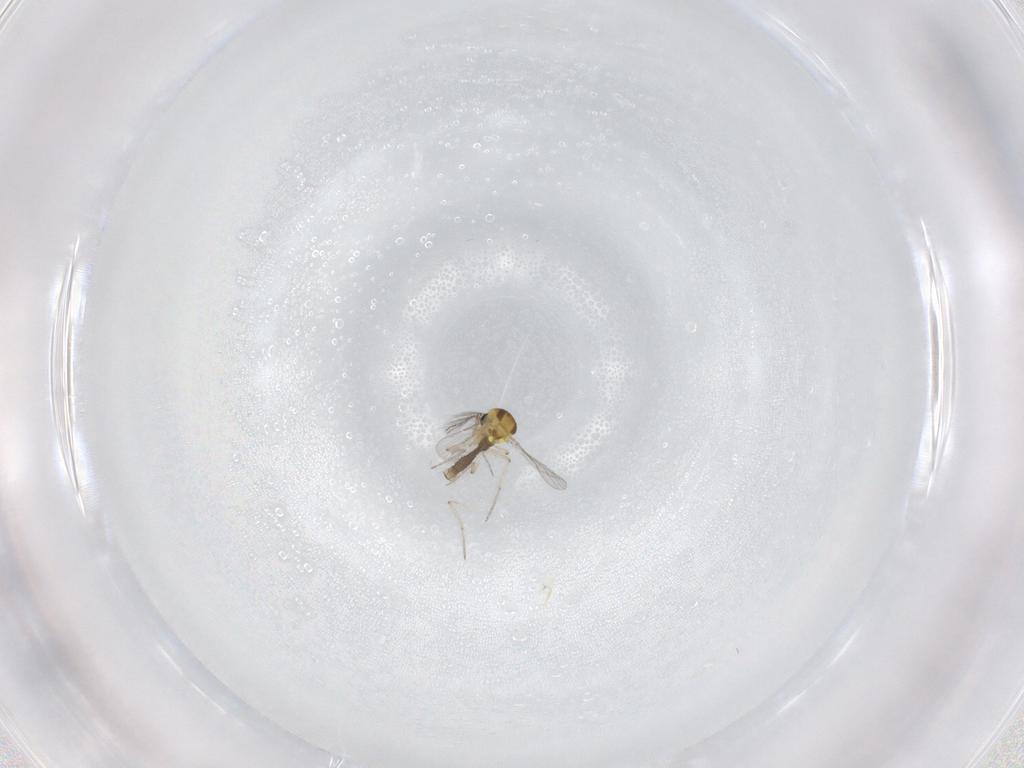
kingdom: Animalia
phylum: Arthropoda
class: Insecta
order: Diptera
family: Ceratopogonidae
